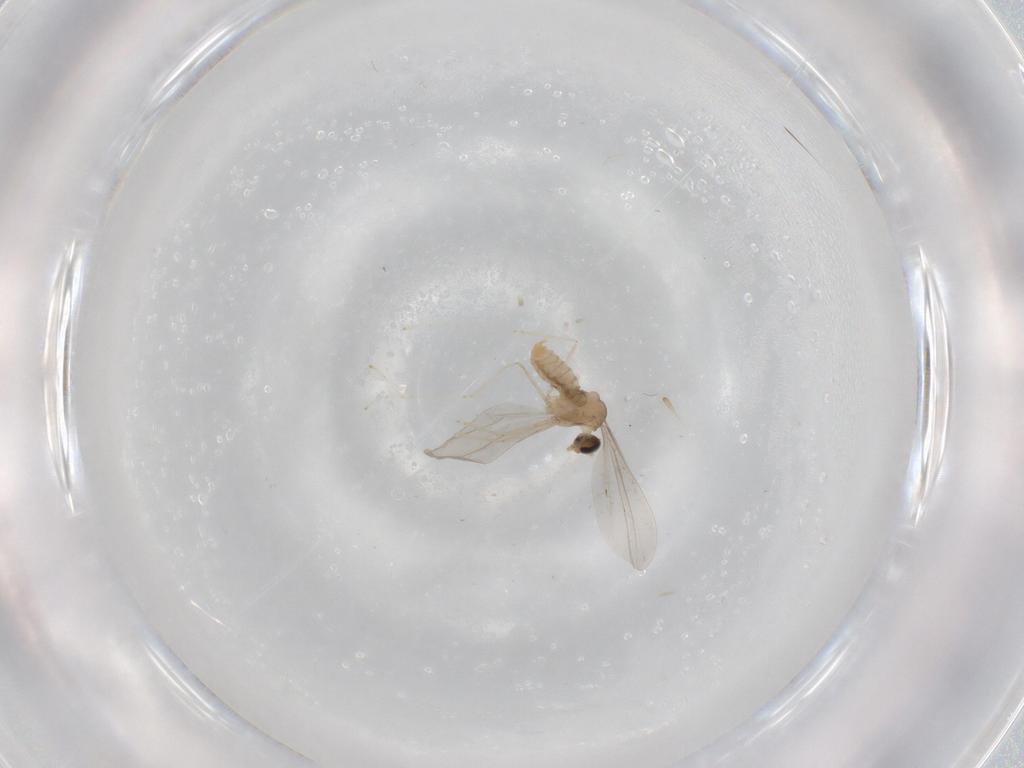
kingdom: Animalia
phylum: Arthropoda
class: Insecta
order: Diptera
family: Cecidomyiidae
